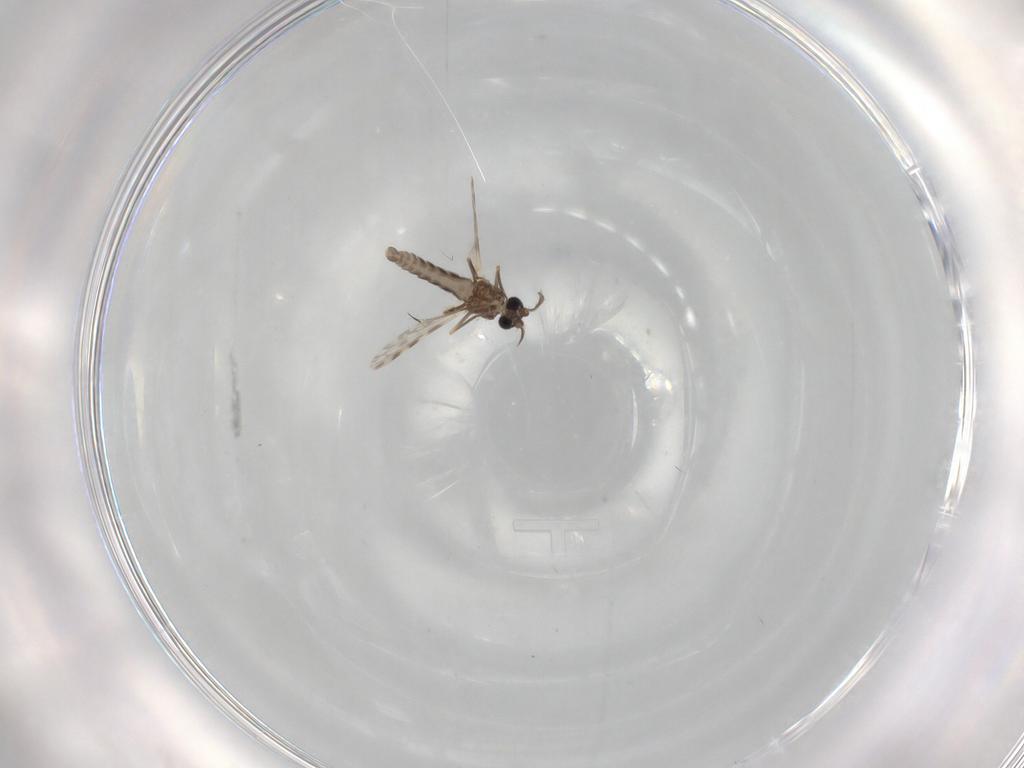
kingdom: Animalia
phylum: Arthropoda
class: Insecta
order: Diptera
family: Ceratopogonidae
